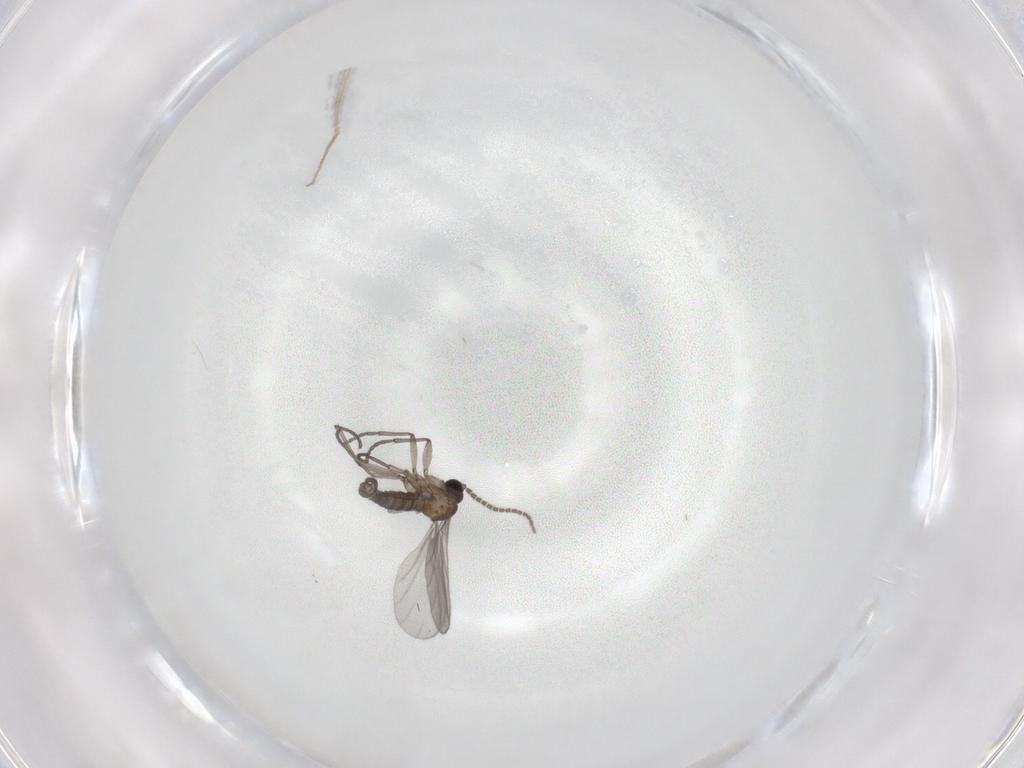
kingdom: Animalia
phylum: Arthropoda
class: Insecta
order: Diptera
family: Sciaridae
